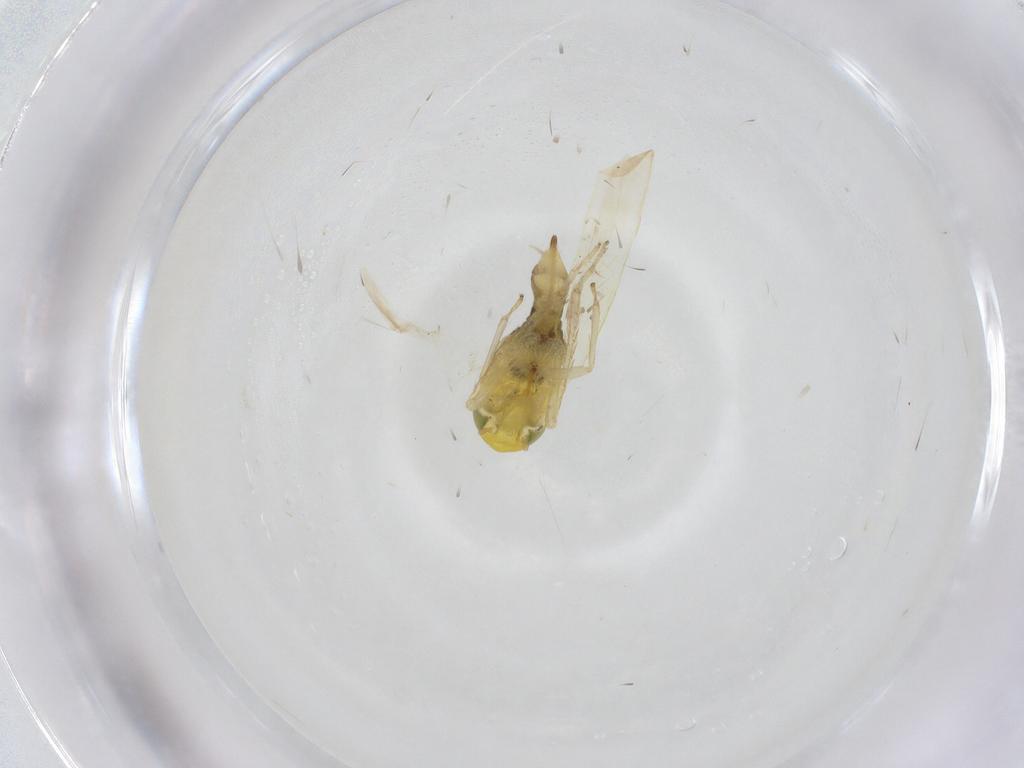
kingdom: Animalia
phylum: Arthropoda
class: Insecta
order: Hemiptera
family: Cicadellidae
